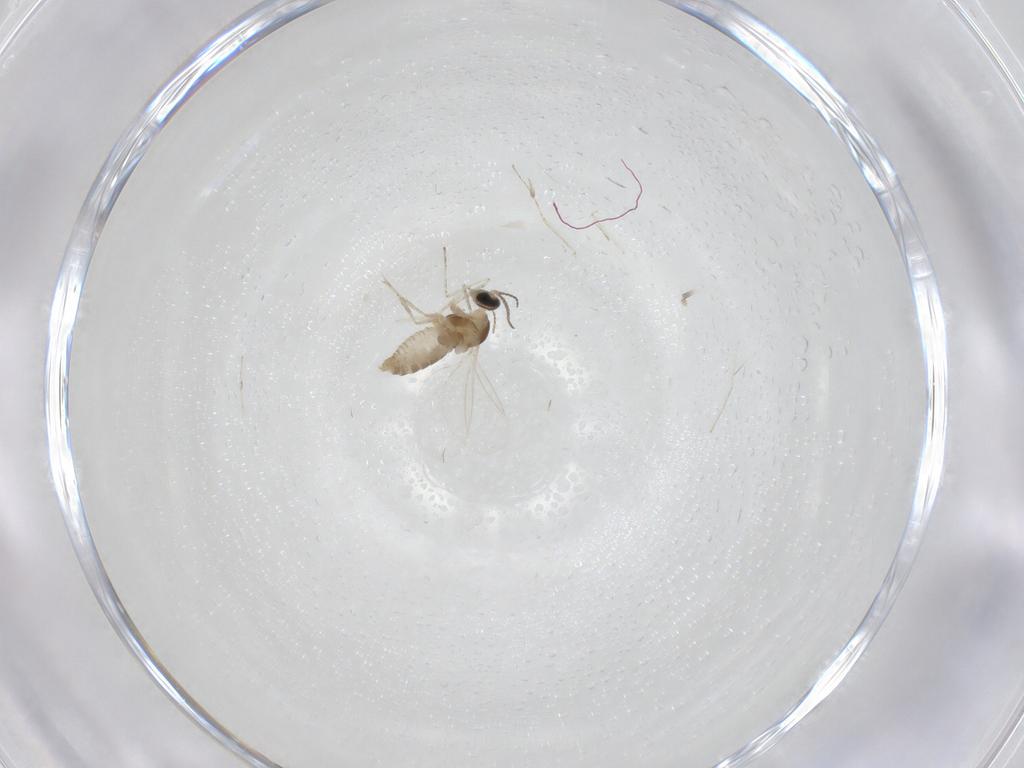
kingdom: Animalia
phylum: Arthropoda
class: Insecta
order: Diptera
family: Cecidomyiidae
